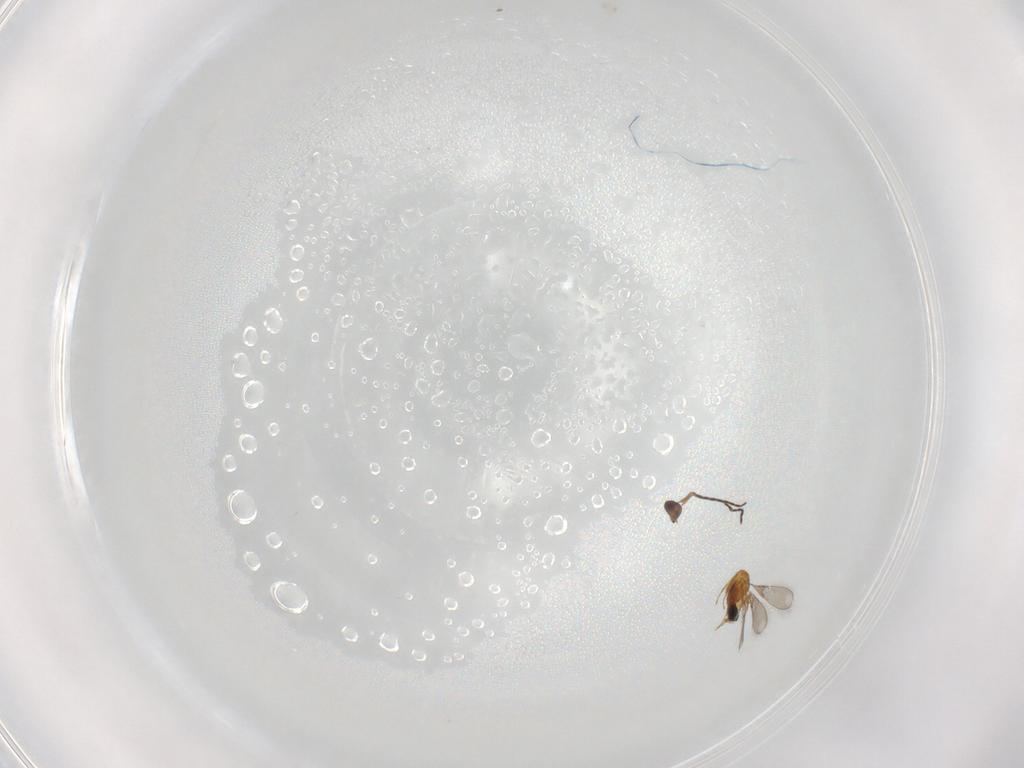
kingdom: Animalia
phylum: Arthropoda
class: Insecta
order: Hymenoptera
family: Mymaridae
